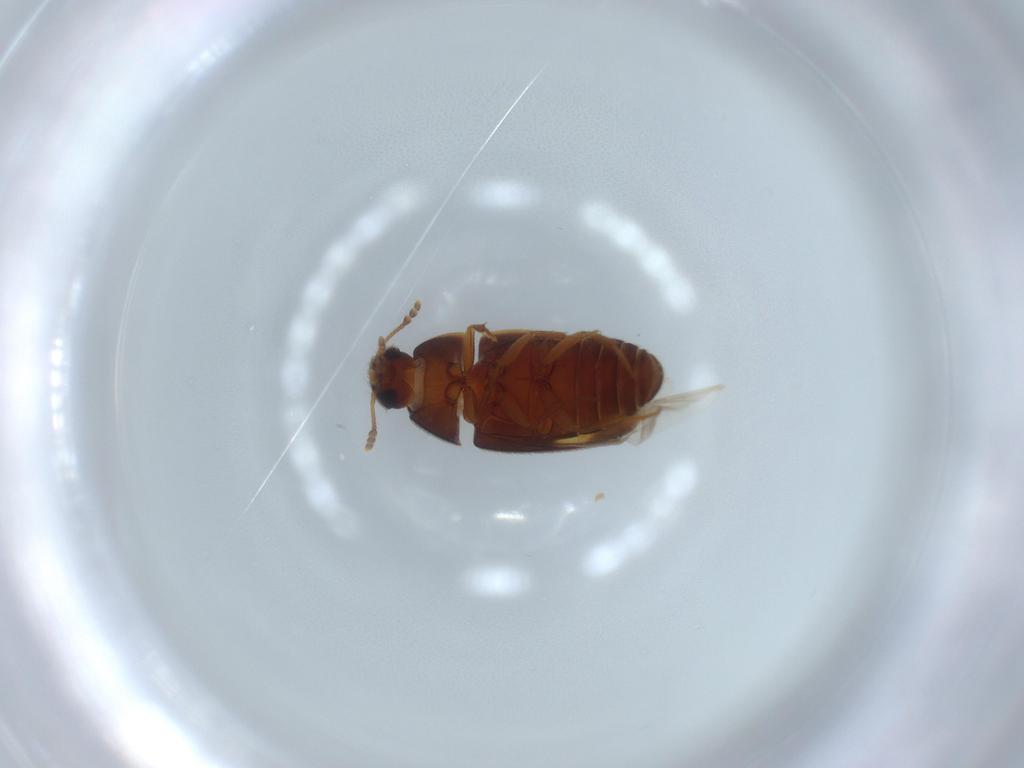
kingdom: Animalia
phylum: Arthropoda
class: Insecta
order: Coleoptera
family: Mycetophagidae
